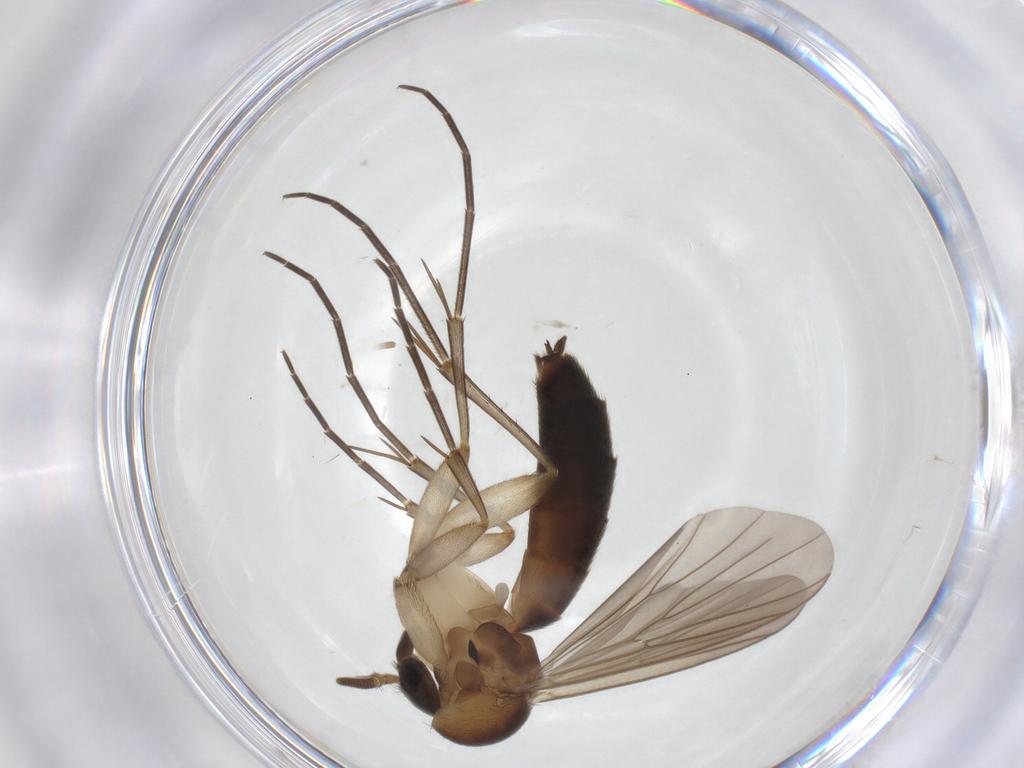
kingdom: Animalia
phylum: Arthropoda
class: Insecta
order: Diptera
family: Mycetophilidae
